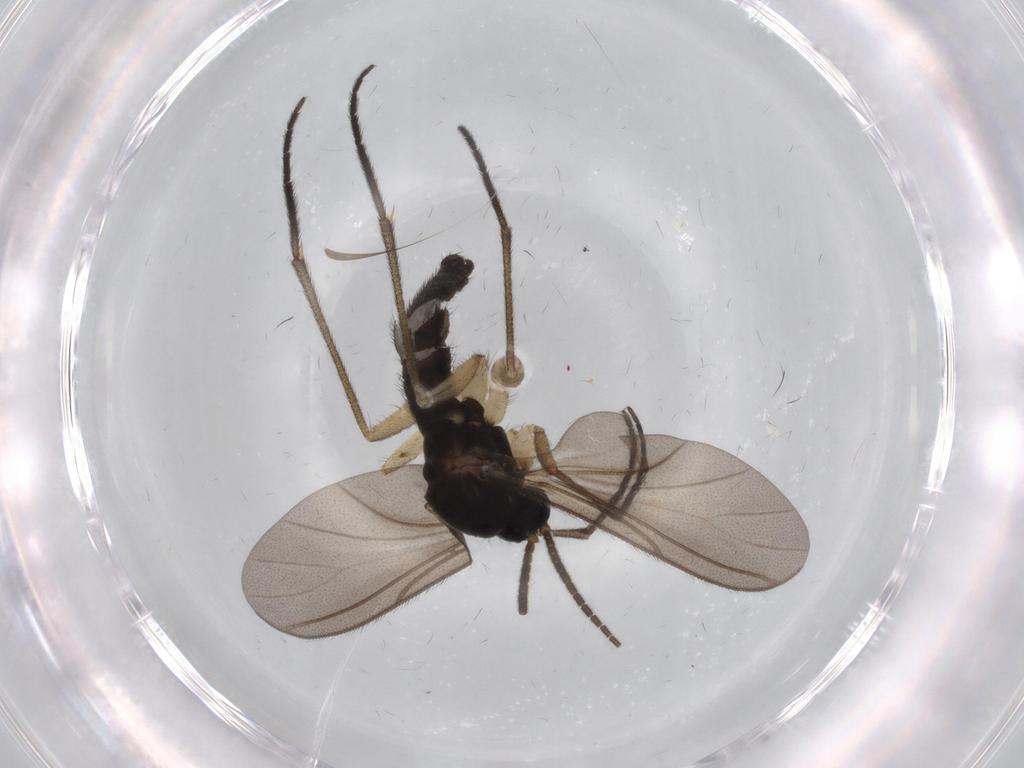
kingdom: Animalia
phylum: Arthropoda
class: Insecta
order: Diptera
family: Sciaridae
